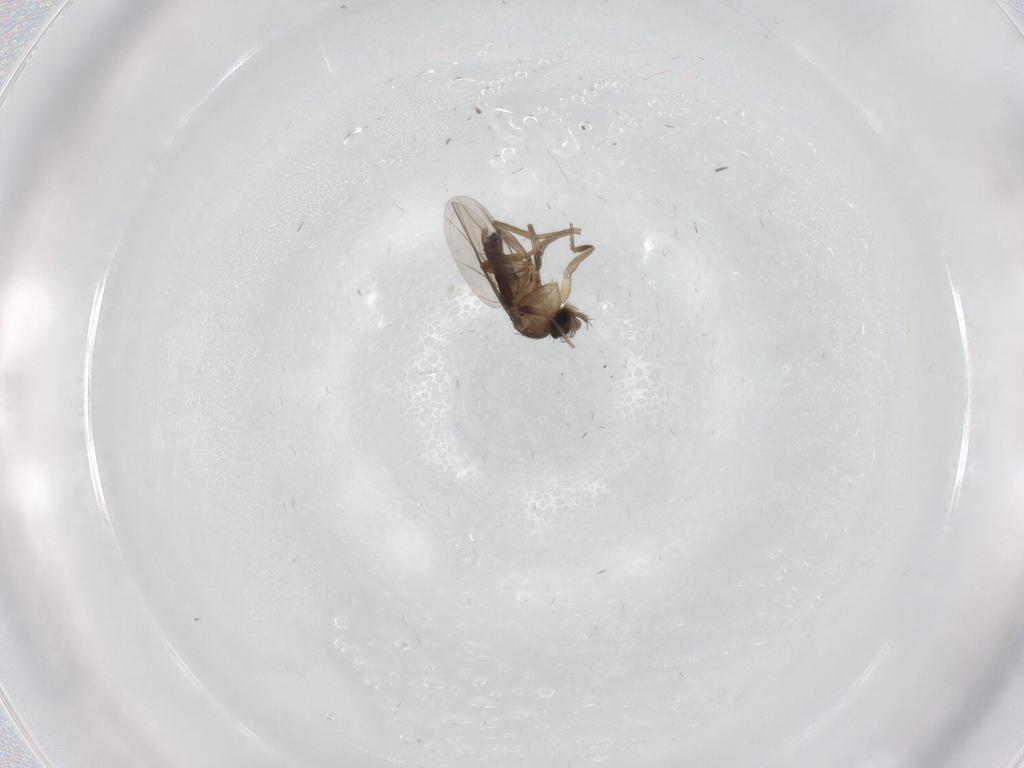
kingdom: Animalia
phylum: Arthropoda
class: Insecta
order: Diptera
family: Phoridae
